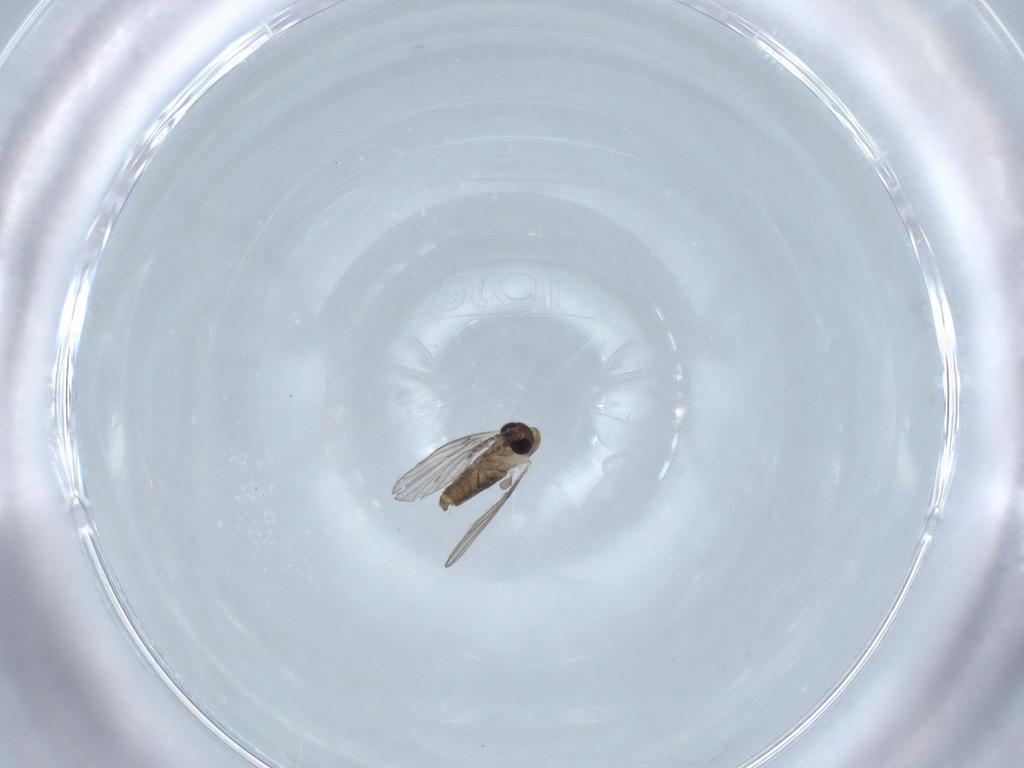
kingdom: Animalia
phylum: Arthropoda
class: Insecta
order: Diptera
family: Psychodidae
